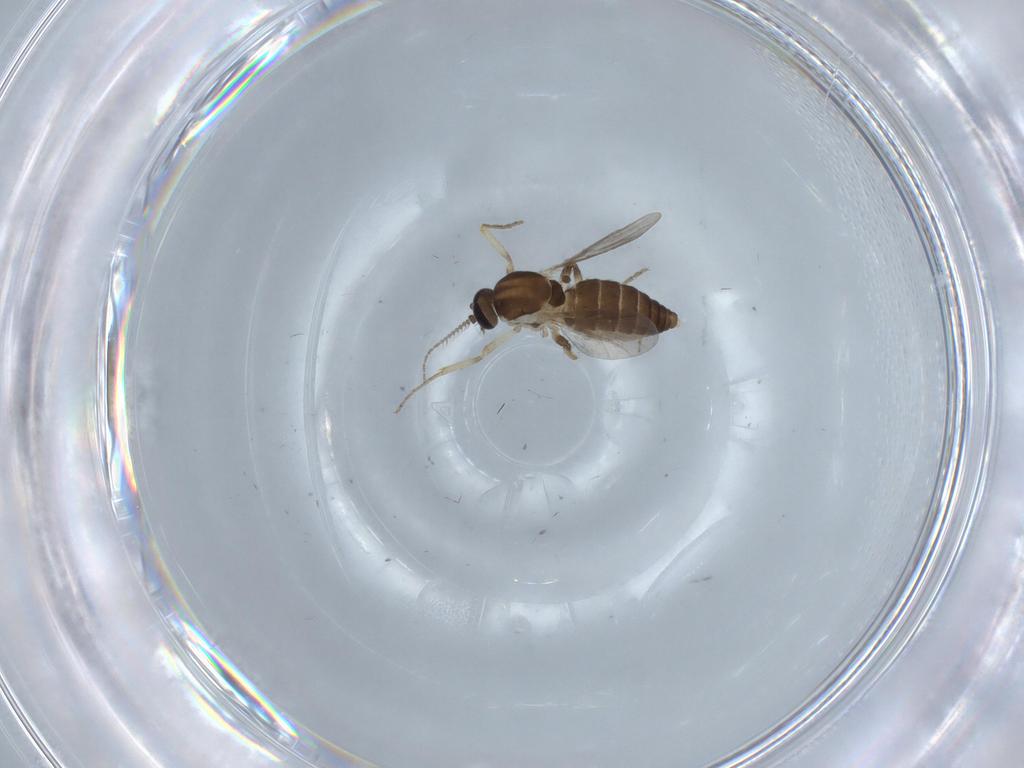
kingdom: Animalia
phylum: Arthropoda
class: Insecta
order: Diptera
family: Ceratopogonidae
